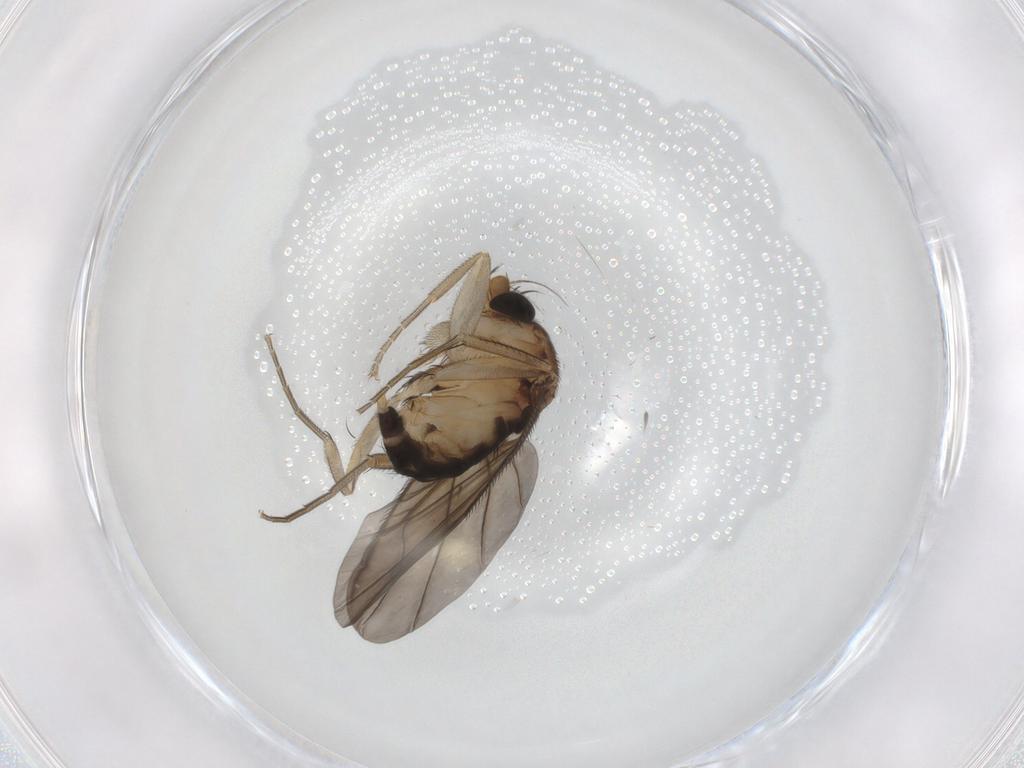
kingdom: Animalia
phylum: Arthropoda
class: Insecta
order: Diptera
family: Phoridae
